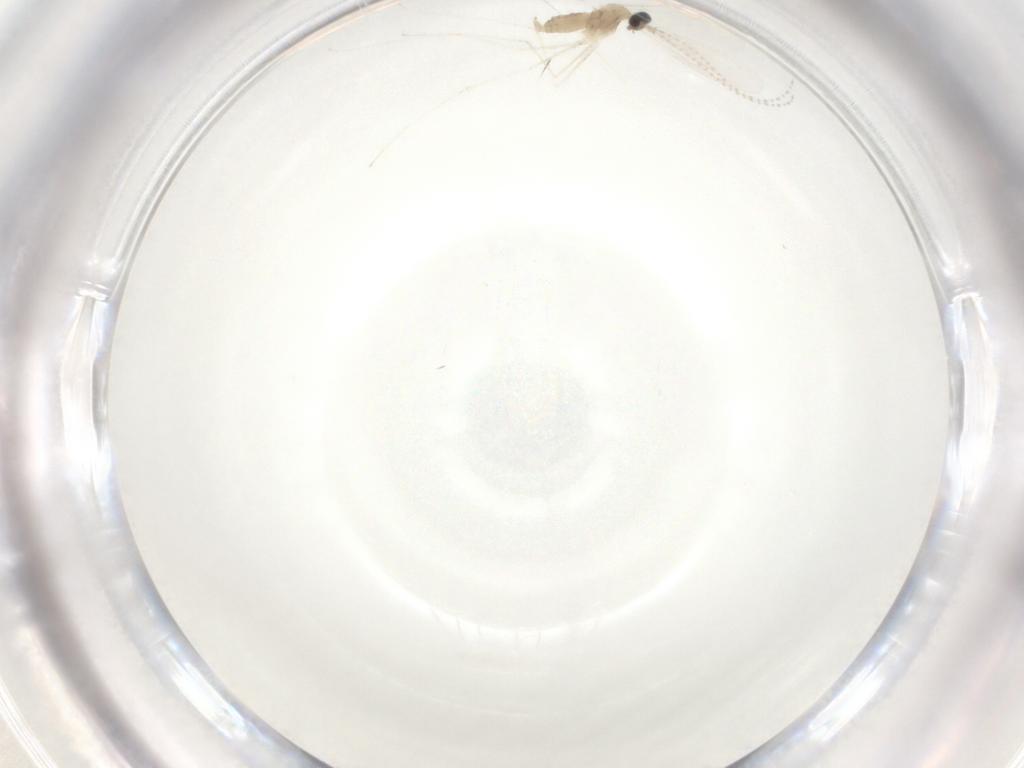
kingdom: Animalia
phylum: Arthropoda
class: Insecta
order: Diptera
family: Cecidomyiidae
